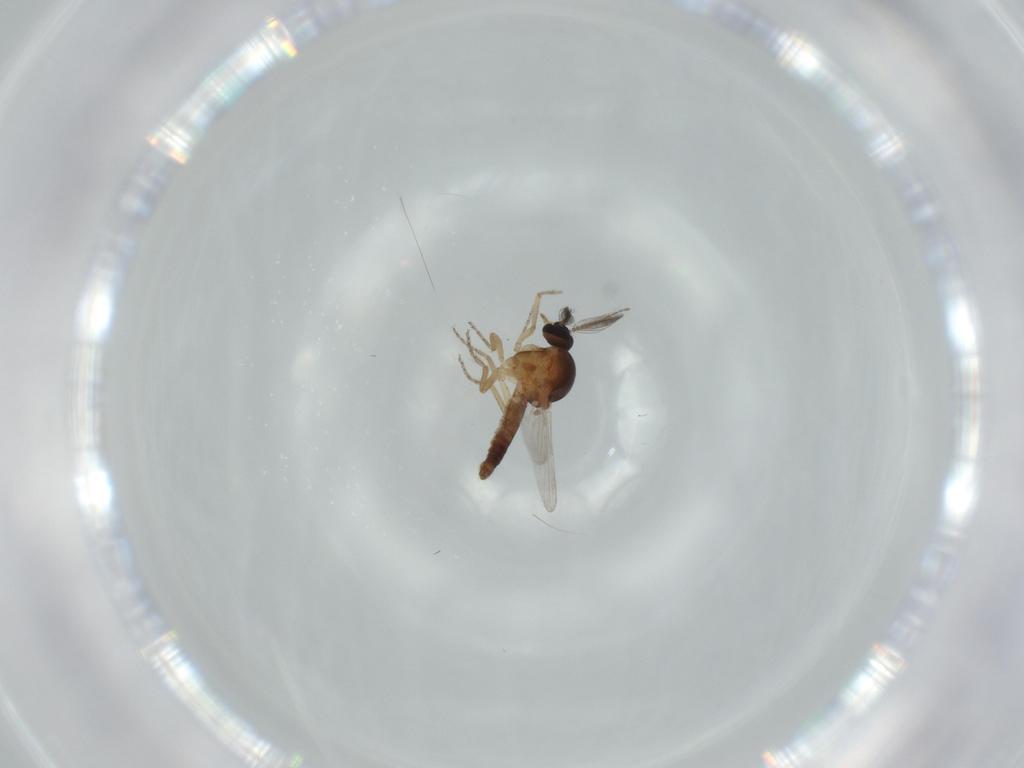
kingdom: Animalia
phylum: Arthropoda
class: Insecta
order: Diptera
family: Ceratopogonidae
